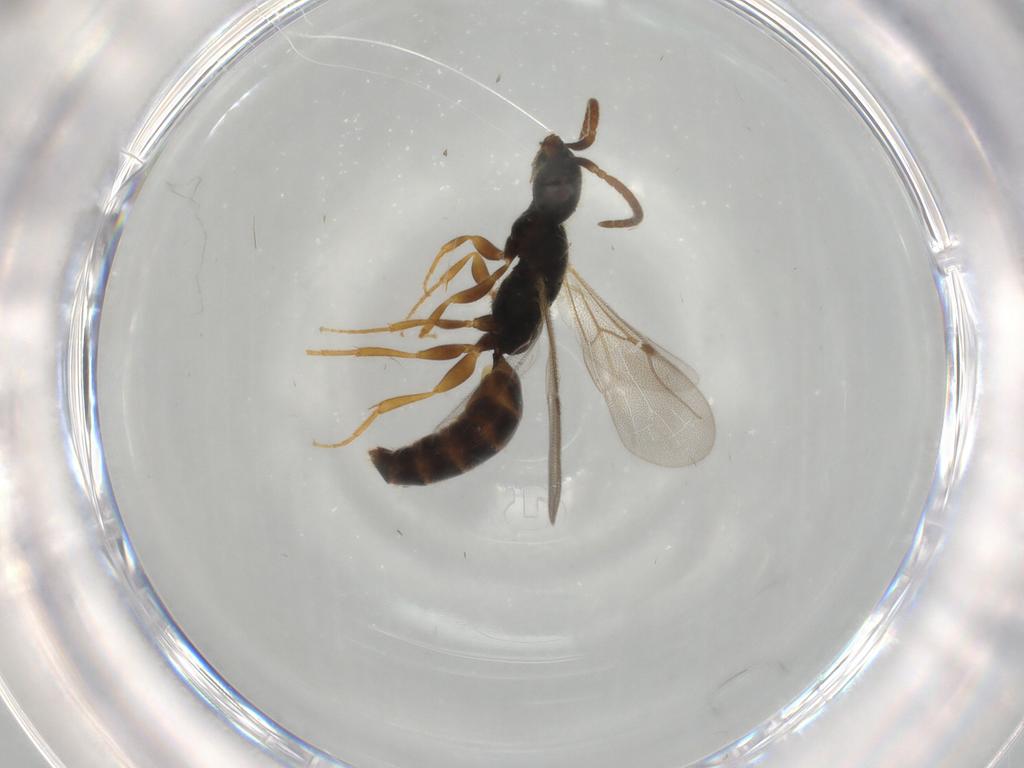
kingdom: Animalia
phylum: Arthropoda
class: Insecta
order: Hymenoptera
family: Bethylidae
